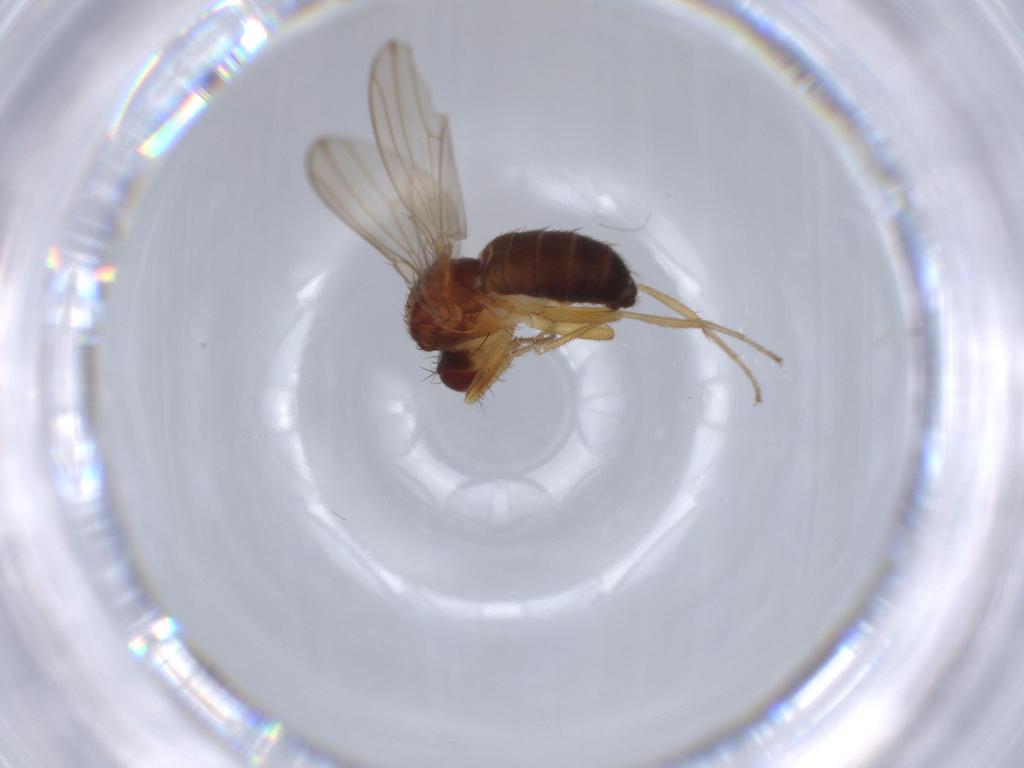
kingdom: Animalia
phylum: Arthropoda
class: Insecta
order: Diptera
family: Drosophilidae
